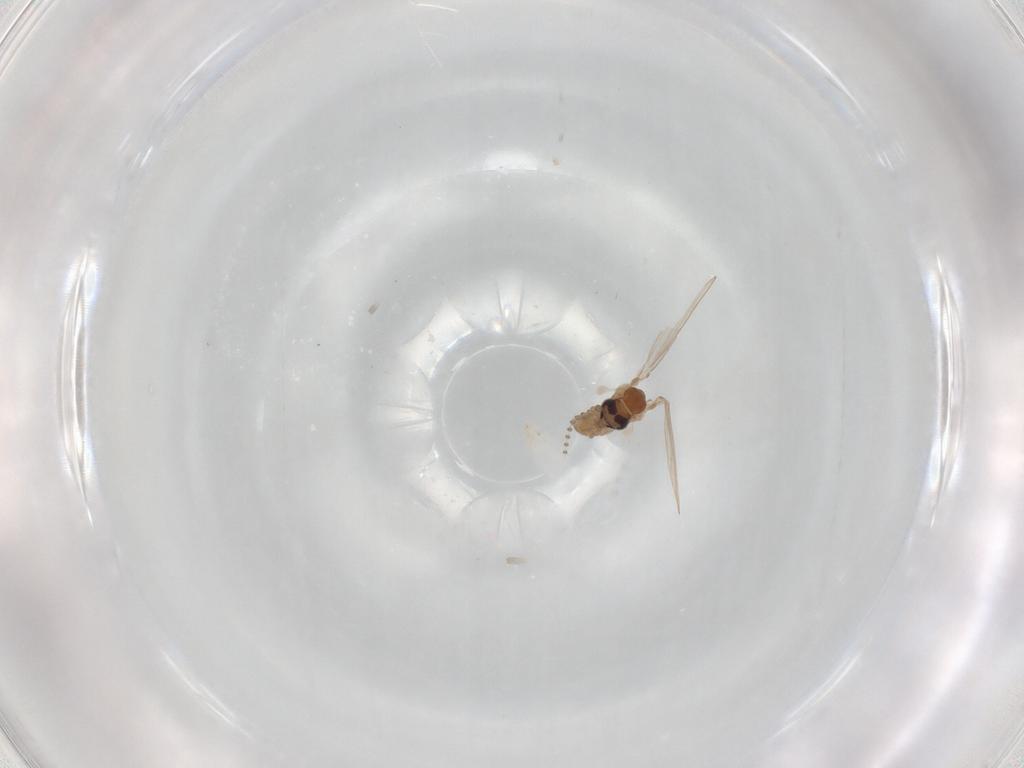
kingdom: Animalia
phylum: Arthropoda
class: Insecta
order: Diptera
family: Psychodidae
